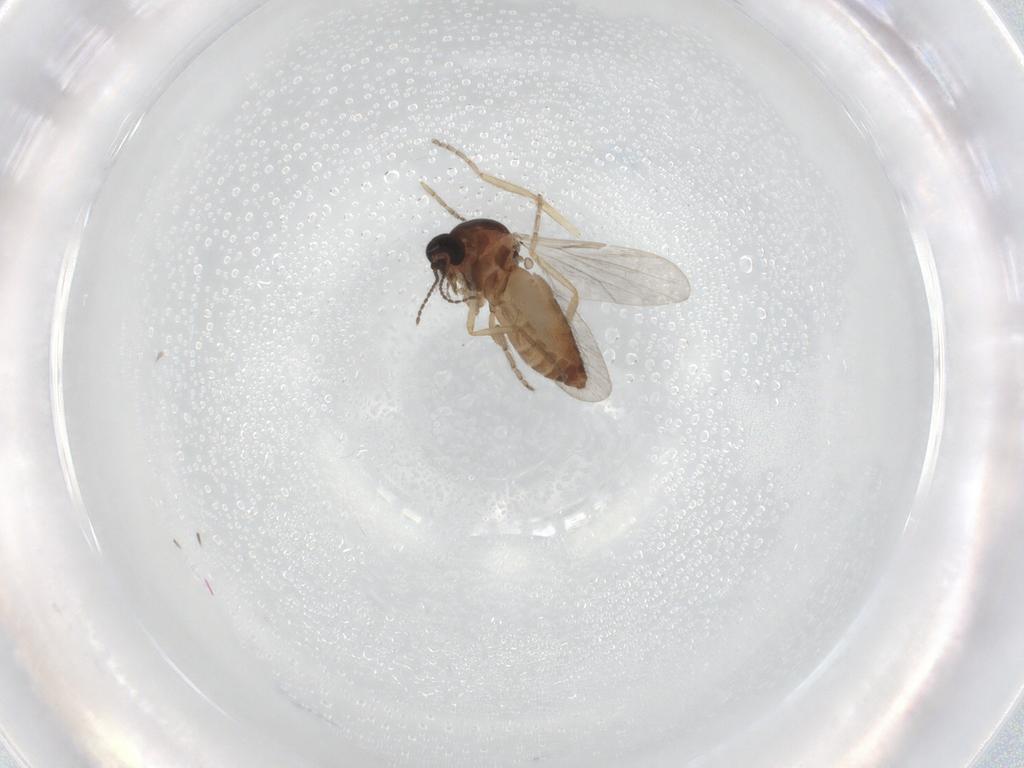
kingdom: Animalia
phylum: Arthropoda
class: Insecta
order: Diptera
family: Ceratopogonidae
